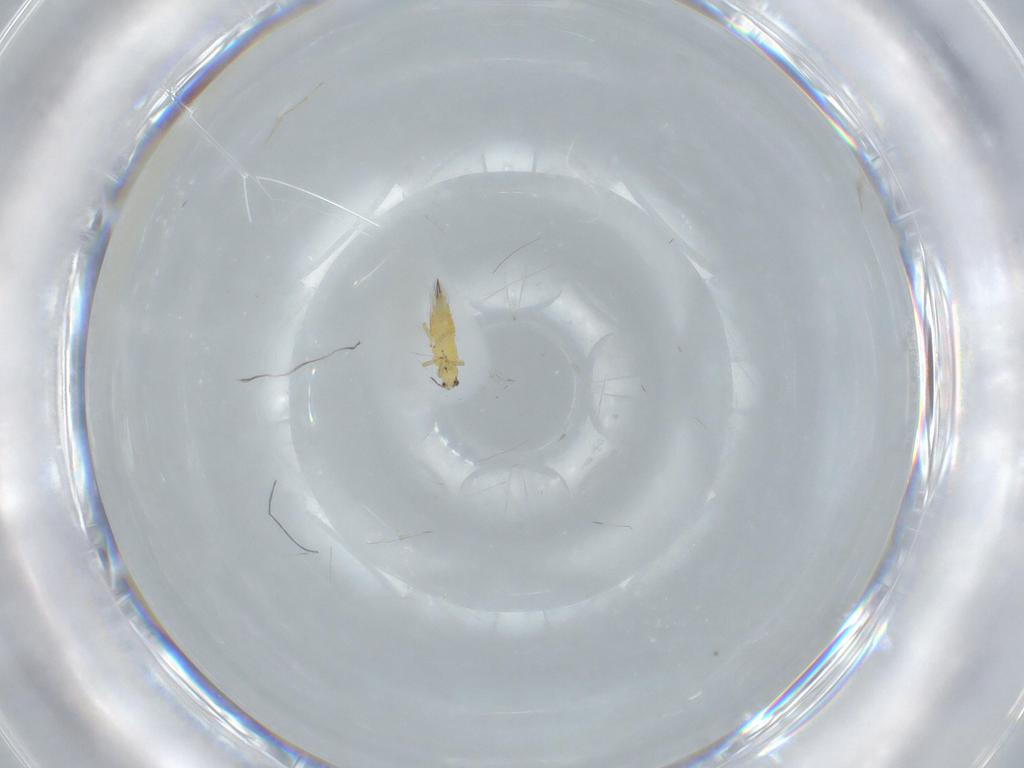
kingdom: Animalia
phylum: Arthropoda
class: Insecta
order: Thysanoptera
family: Thripidae
